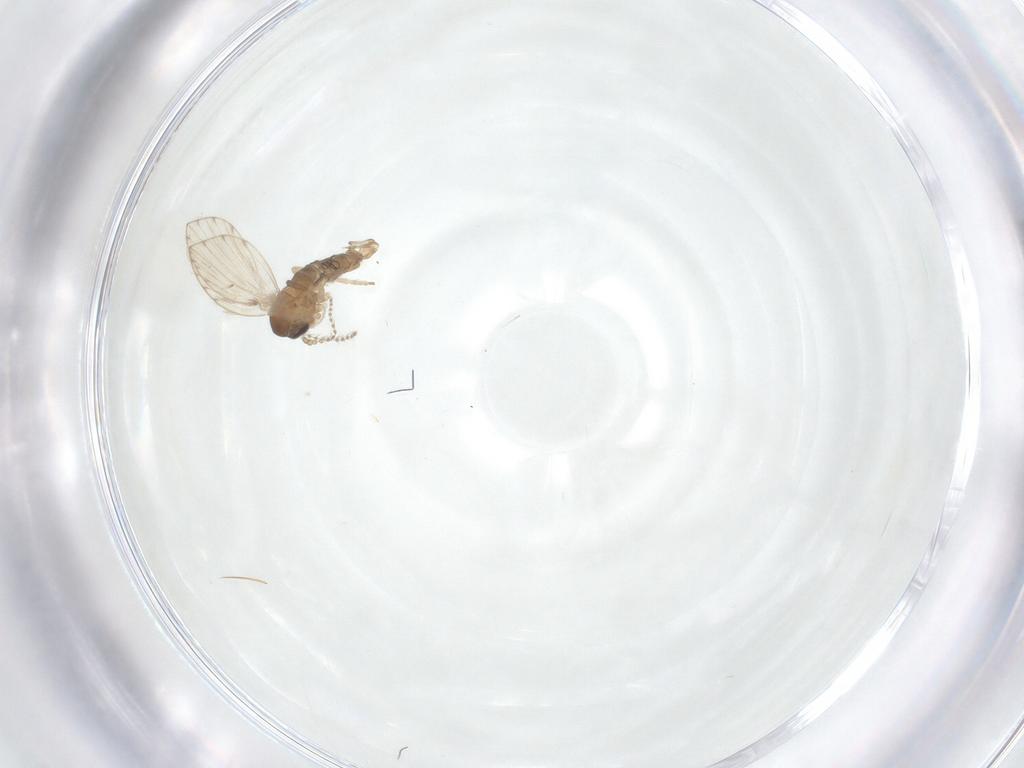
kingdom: Animalia
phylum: Arthropoda
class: Insecta
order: Diptera
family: Psychodidae
